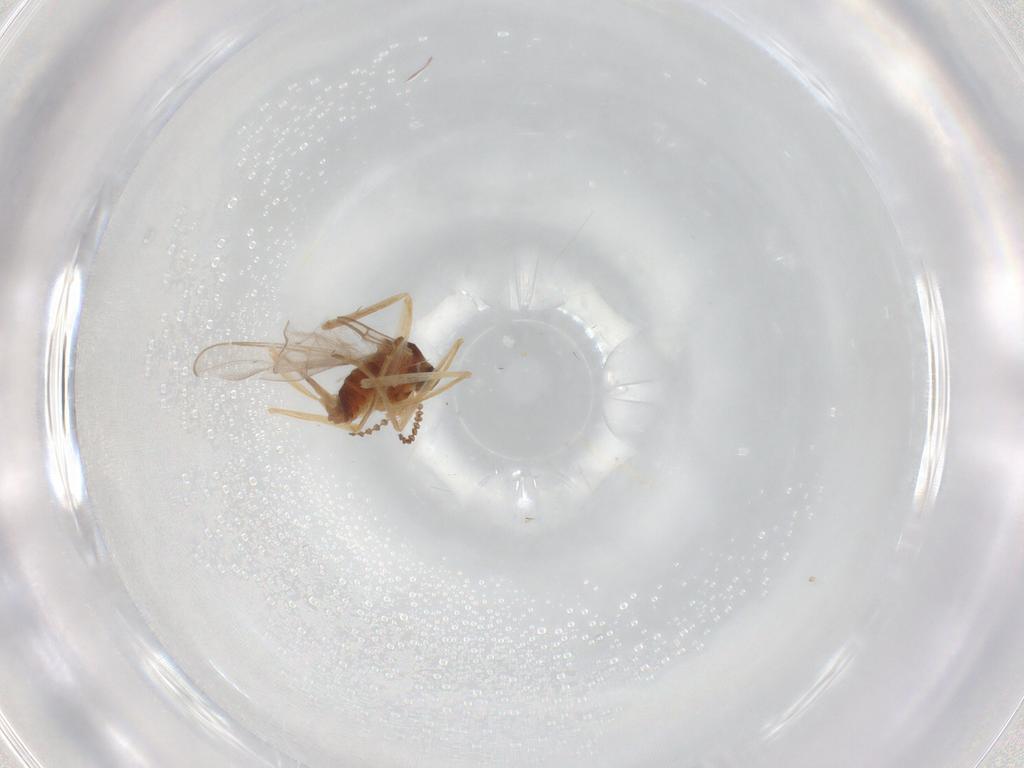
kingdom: Animalia
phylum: Arthropoda
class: Insecta
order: Diptera
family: Cecidomyiidae
